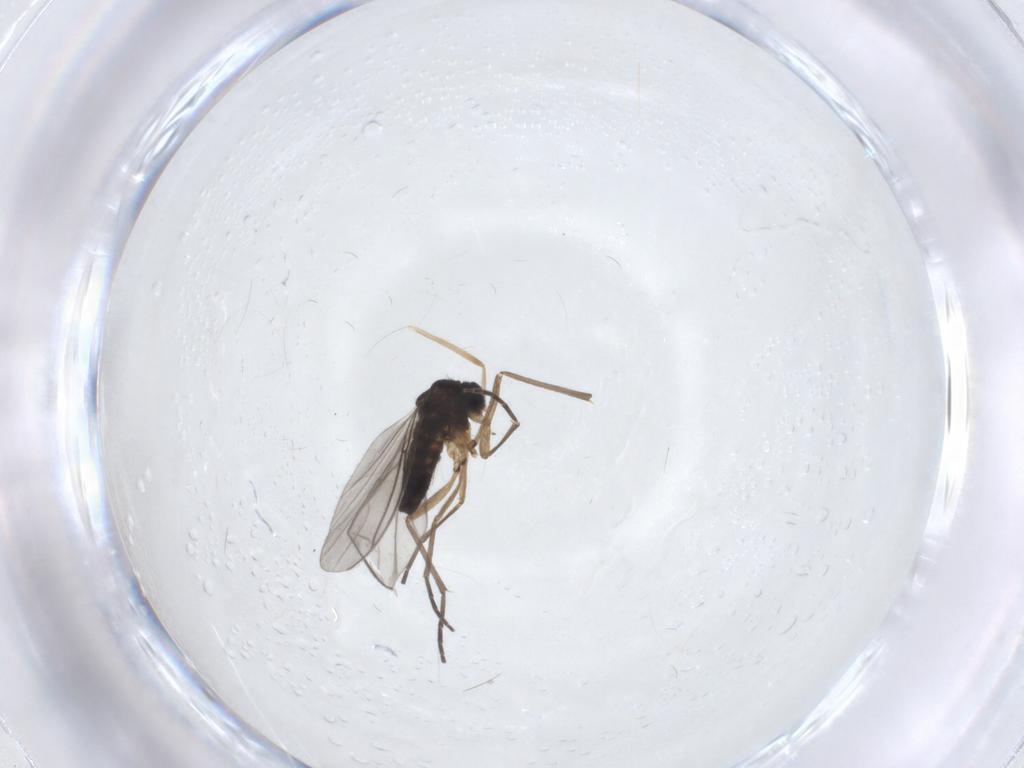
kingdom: Animalia
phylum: Arthropoda
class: Insecta
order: Diptera
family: Chironomidae
